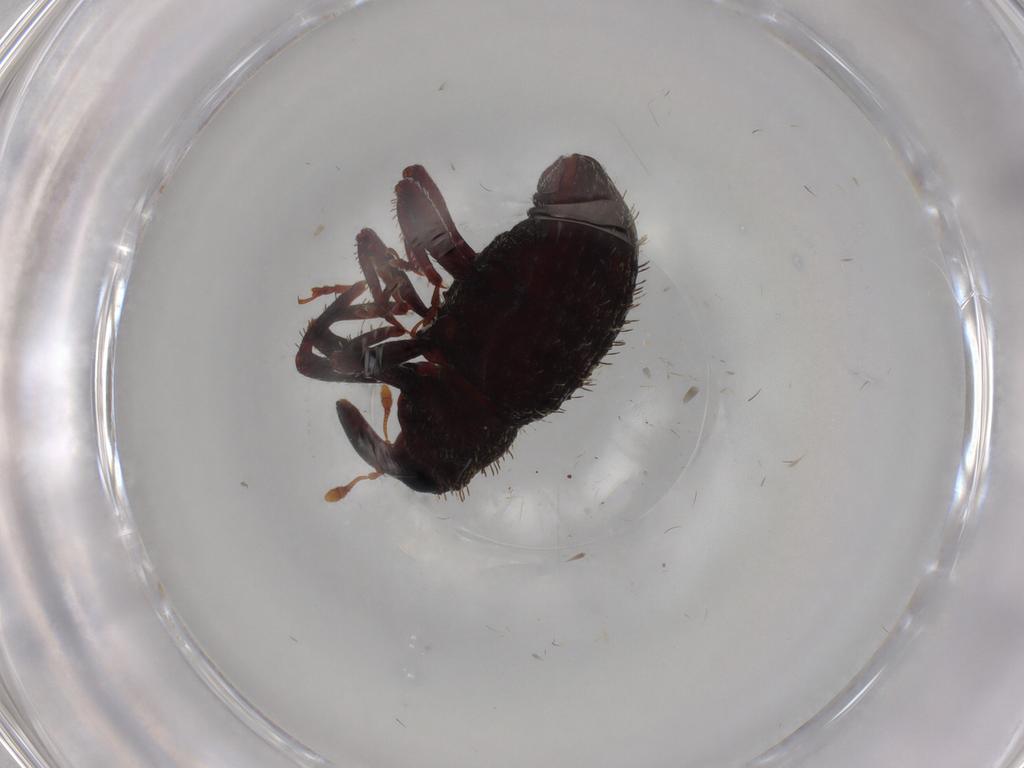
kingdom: Animalia
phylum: Arthropoda
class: Insecta
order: Coleoptera
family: Curculionidae
